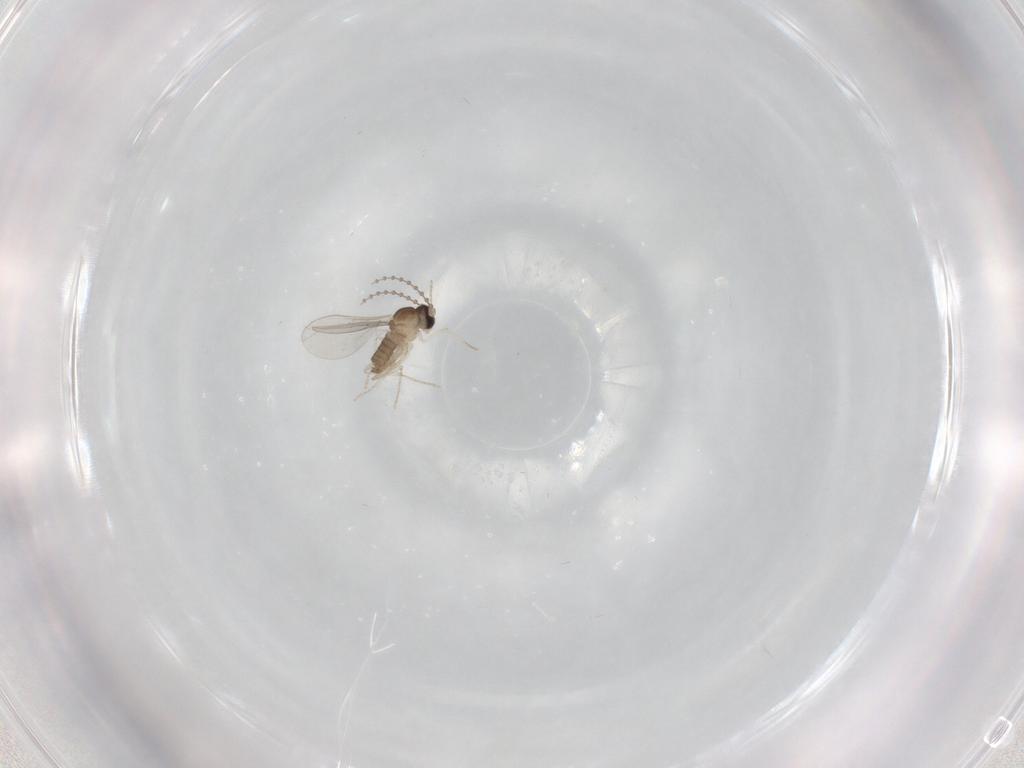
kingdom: Animalia
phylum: Arthropoda
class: Insecta
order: Diptera
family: Cecidomyiidae
